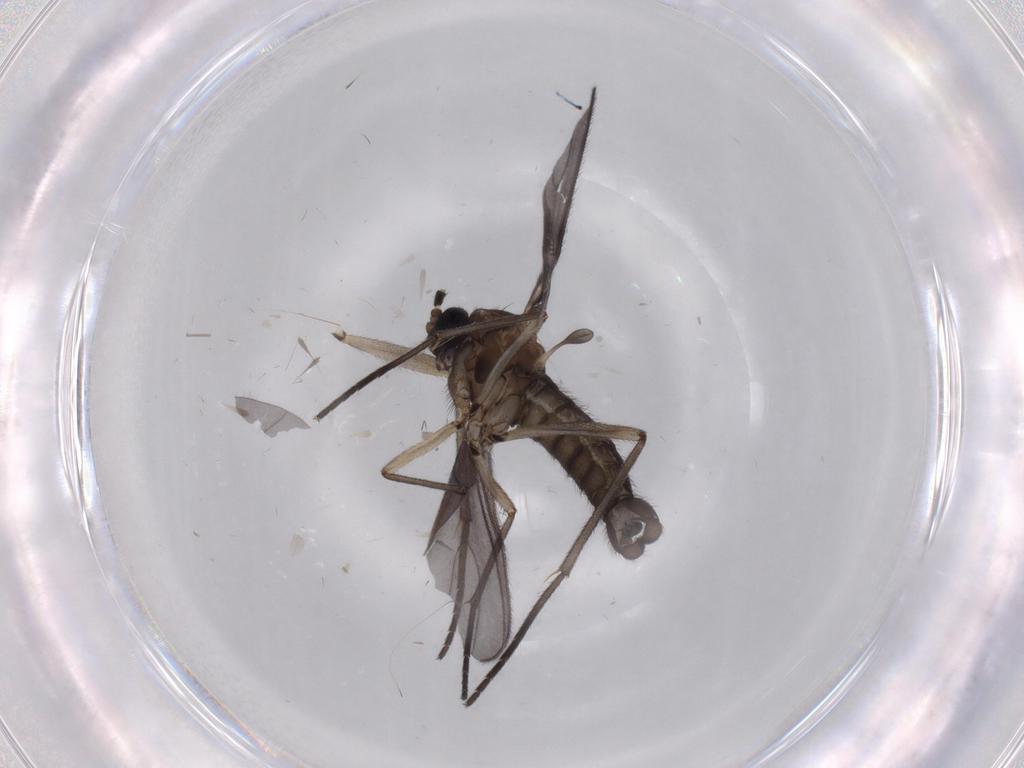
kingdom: Animalia
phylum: Arthropoda
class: Insecta
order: Diptera
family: Sciaridae
